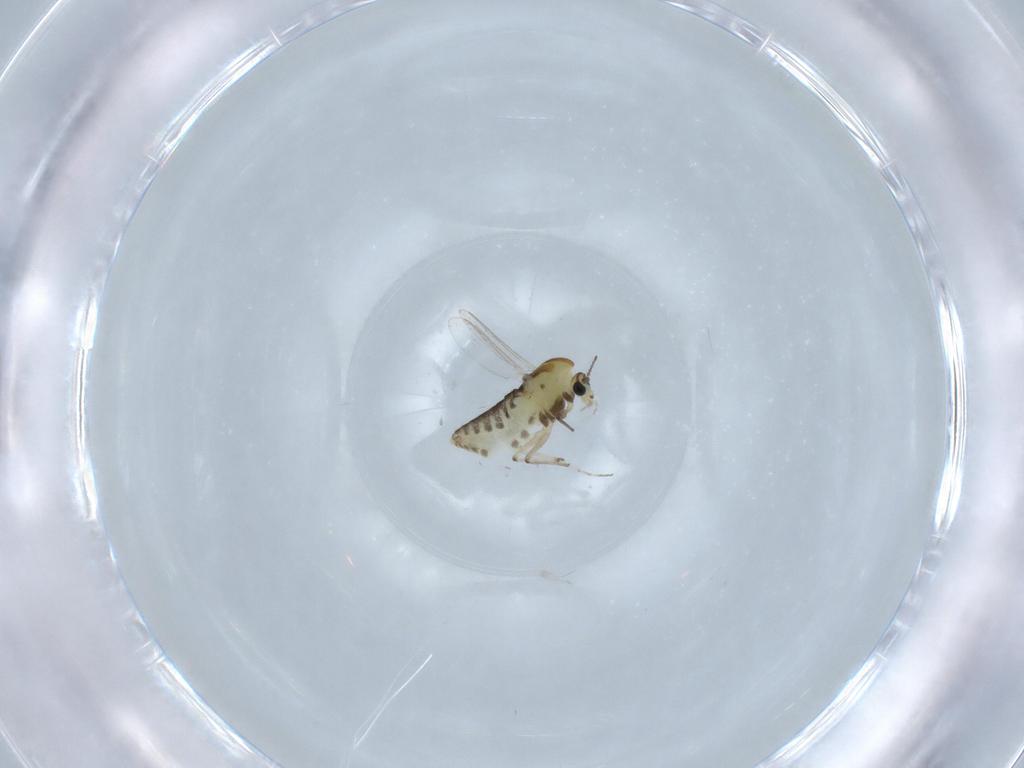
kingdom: Animalia
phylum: Arthropoda
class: Insecta
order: Diptera
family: Chironomidae
